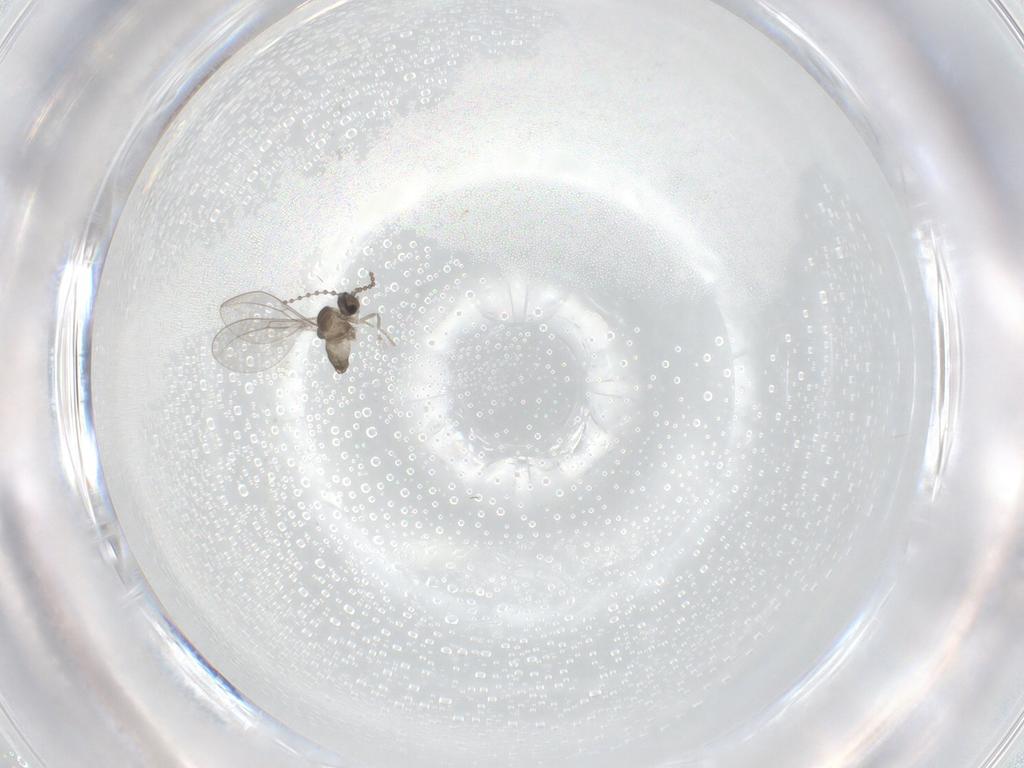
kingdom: Animalia
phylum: Arthropoda
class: Insecta
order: Diptera
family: Cecidomyiidae
